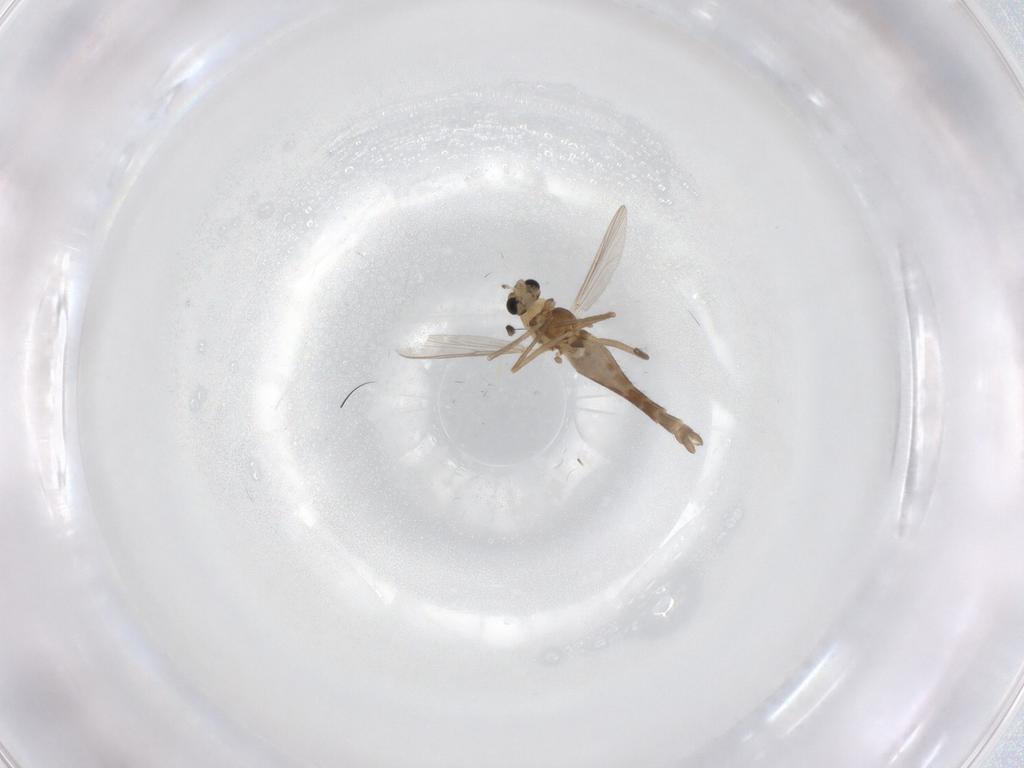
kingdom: Animalia
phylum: Arthropoda
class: Insecta
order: Diptera
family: Chironomidae
